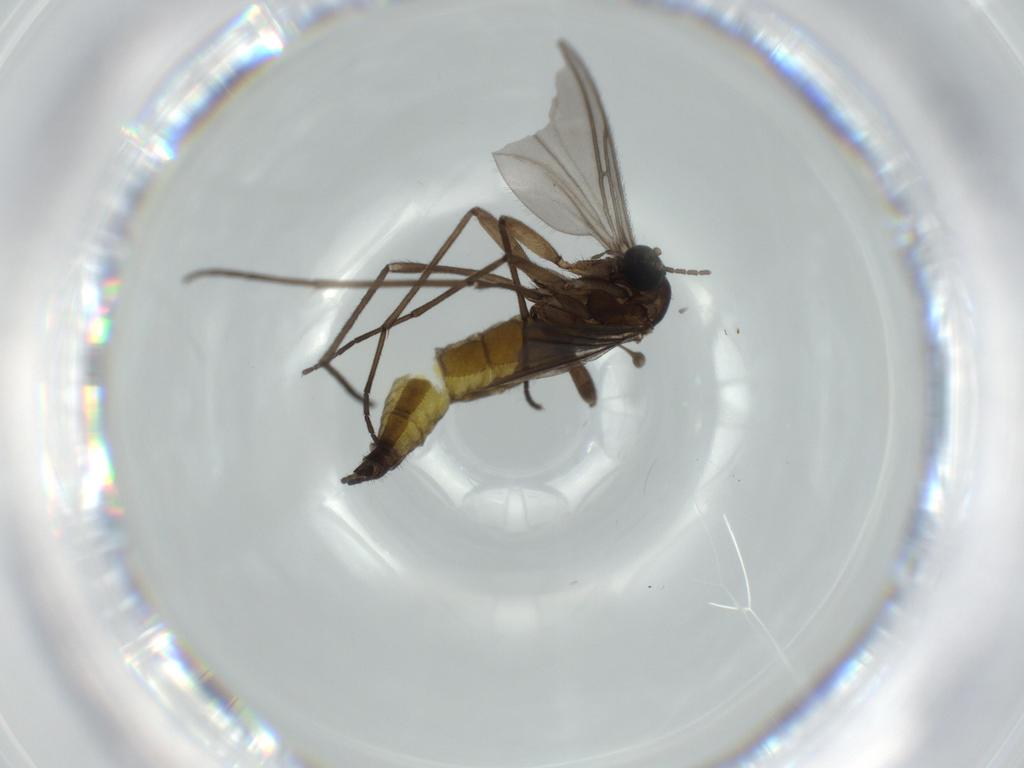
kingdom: Animalia
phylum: Arthropoda
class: Insecta
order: Diptera
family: Sciaridae
